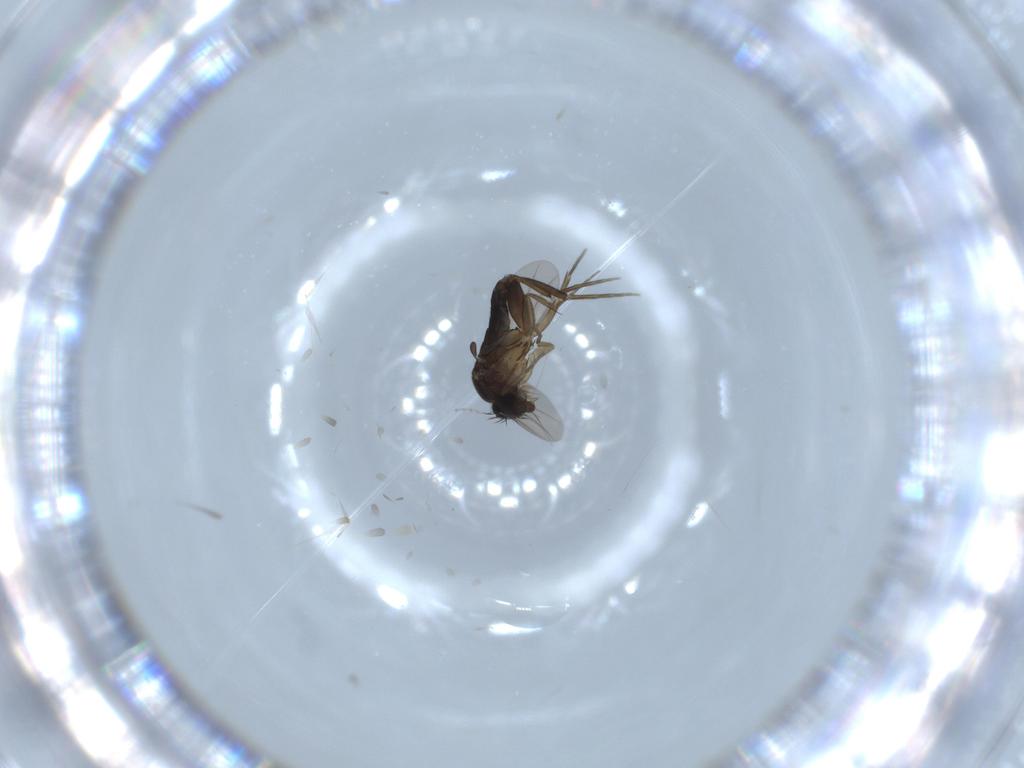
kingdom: Animalia
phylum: Arthropoda
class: Insecta
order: Diptera
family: Phoridae
